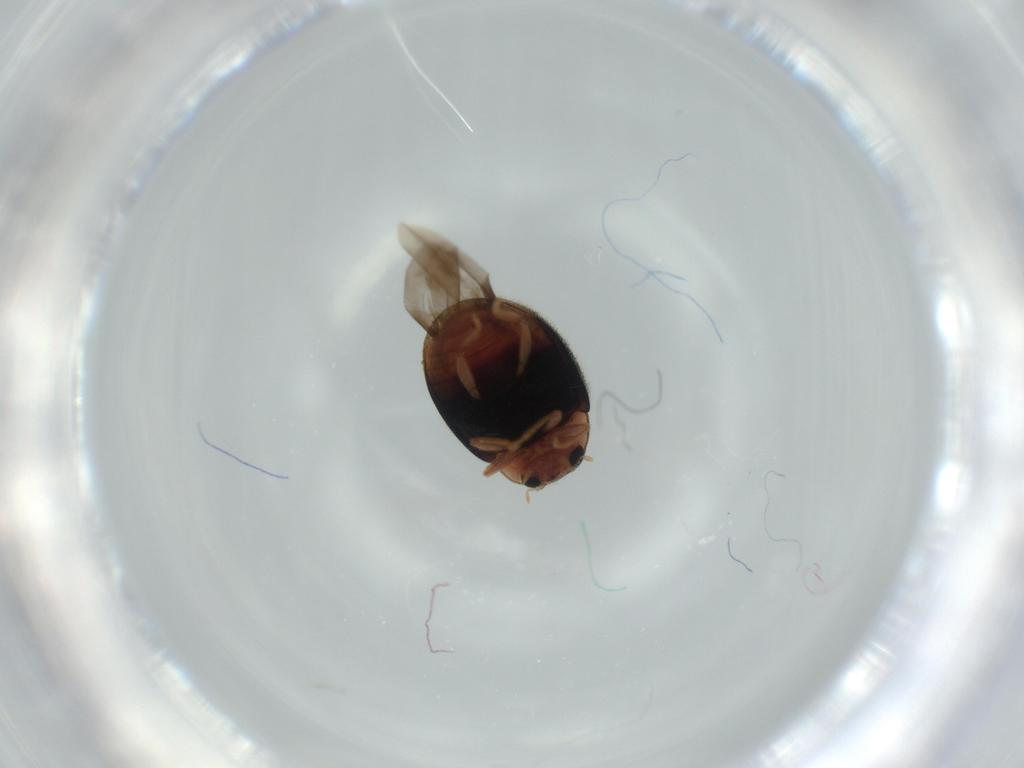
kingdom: Animalia
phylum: Arthropoda
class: Insecta
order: Coleoptera
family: Coccinellidae
